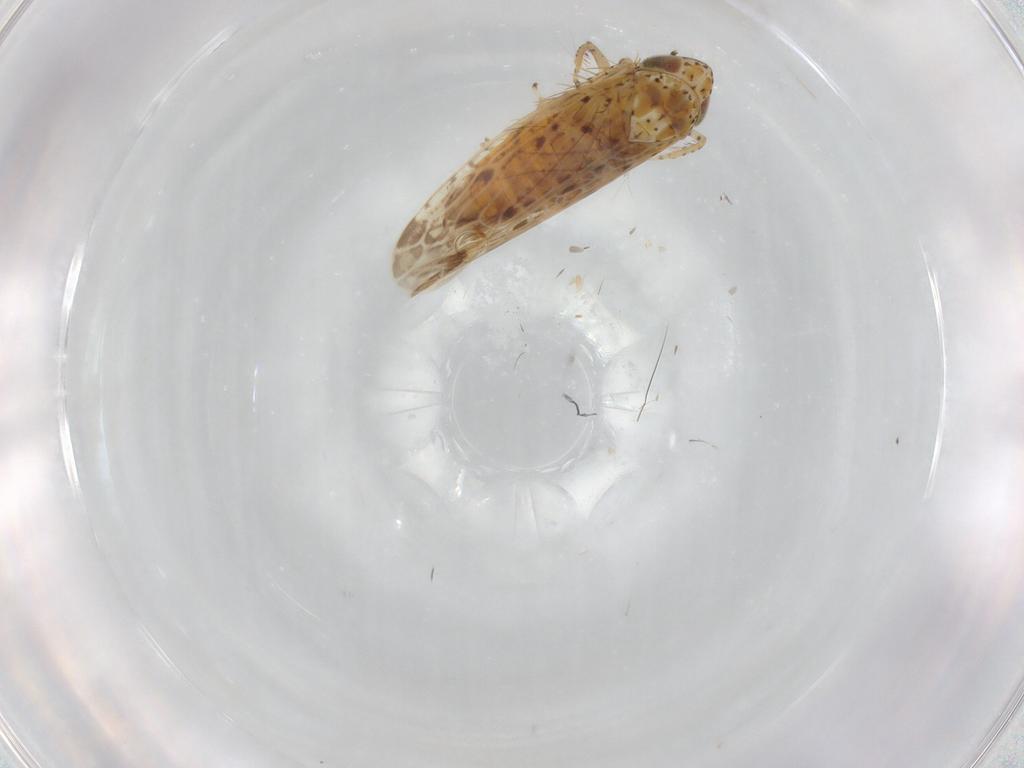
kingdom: Animalia
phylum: Arthropoda
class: Insecta
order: Hemiptera
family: Cicadellidae
